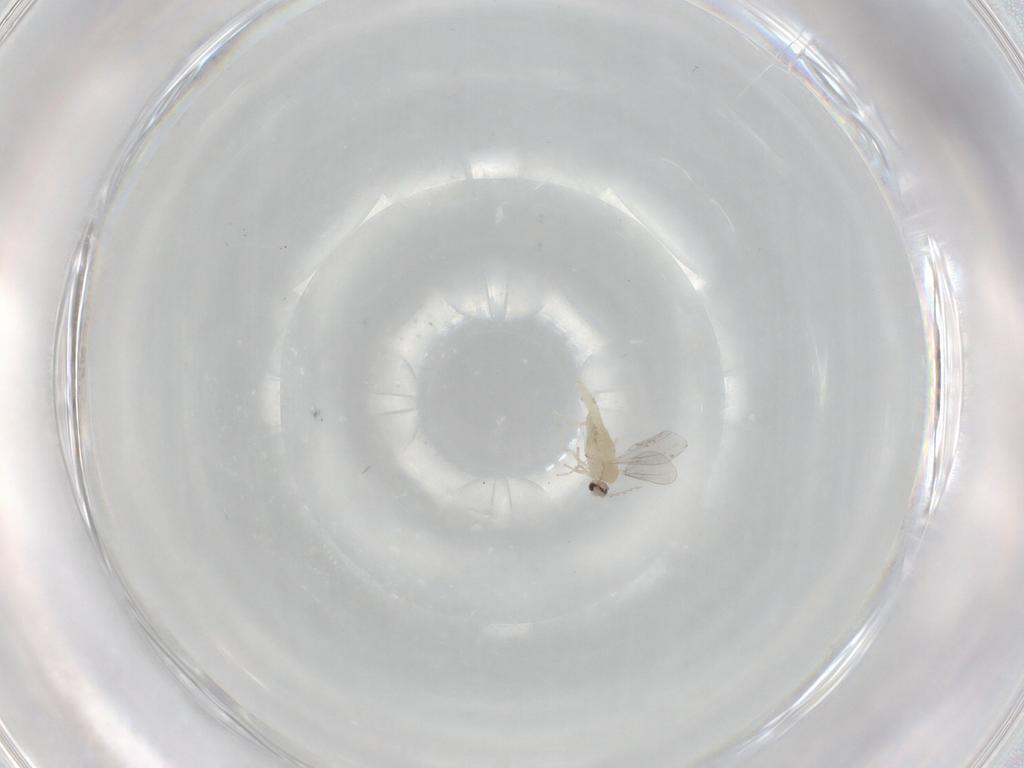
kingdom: Animalia
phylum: Arthropoda
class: Insecta
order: Diptera
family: Cecidomyiidae
